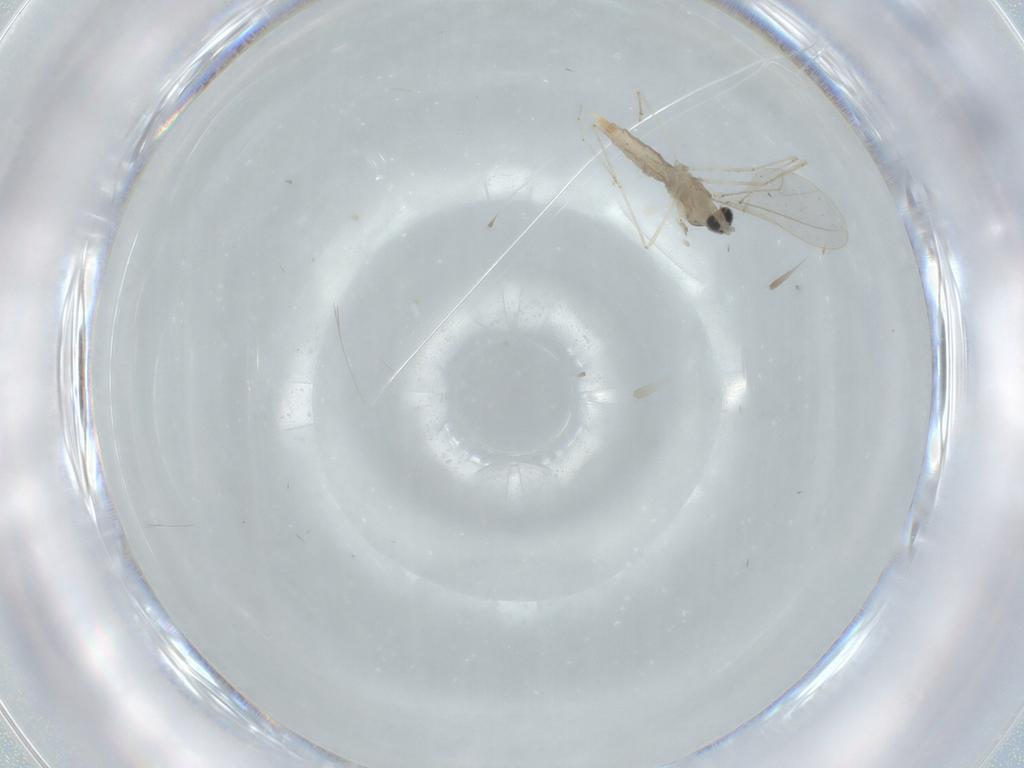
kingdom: Animalia
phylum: Arthropoda
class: Insecta
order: Diptera
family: Cecidomyiidae
